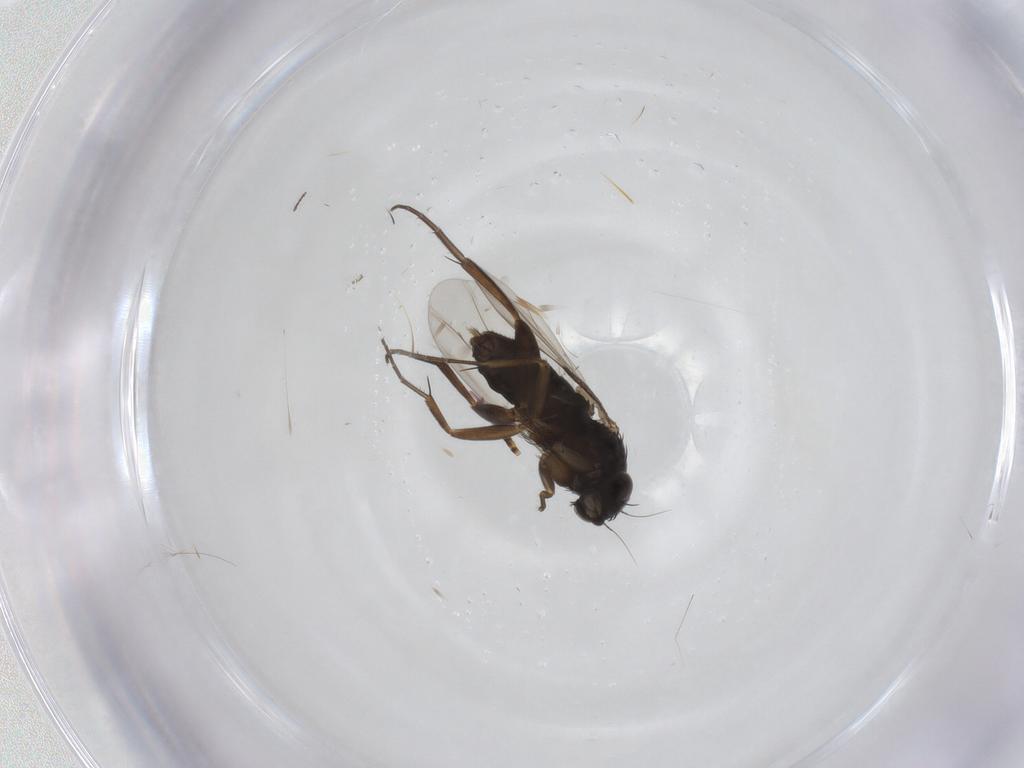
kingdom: Animalia
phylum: Arthropoda
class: Insecta
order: Diptera
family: Phoridae
